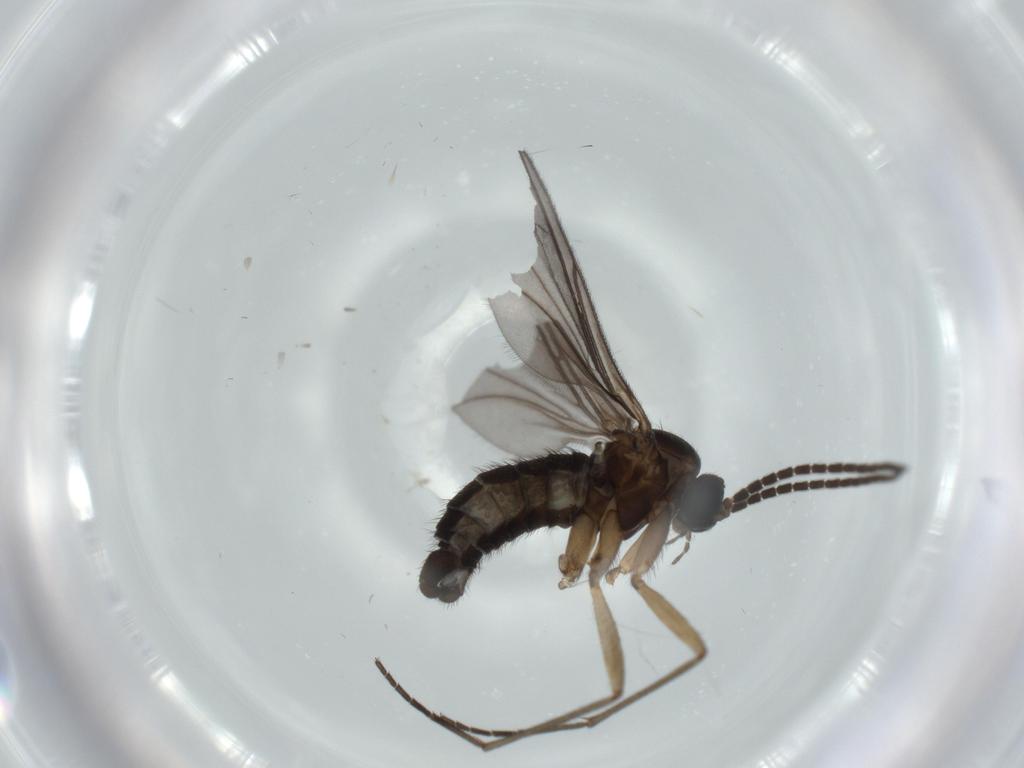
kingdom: Animalia
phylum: Arthropoda
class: Insecta
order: Diptera
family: Sciaridae
